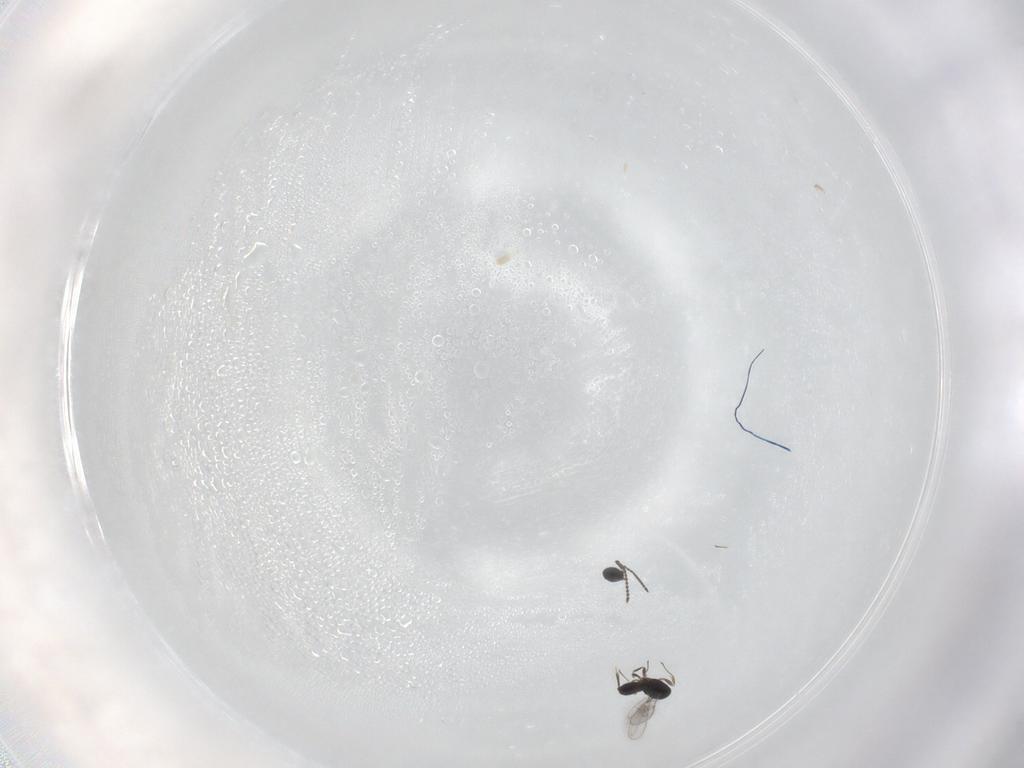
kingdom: Animalia
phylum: Arthropoda
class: Insecta
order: Hymenoptera
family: Scelionidae
